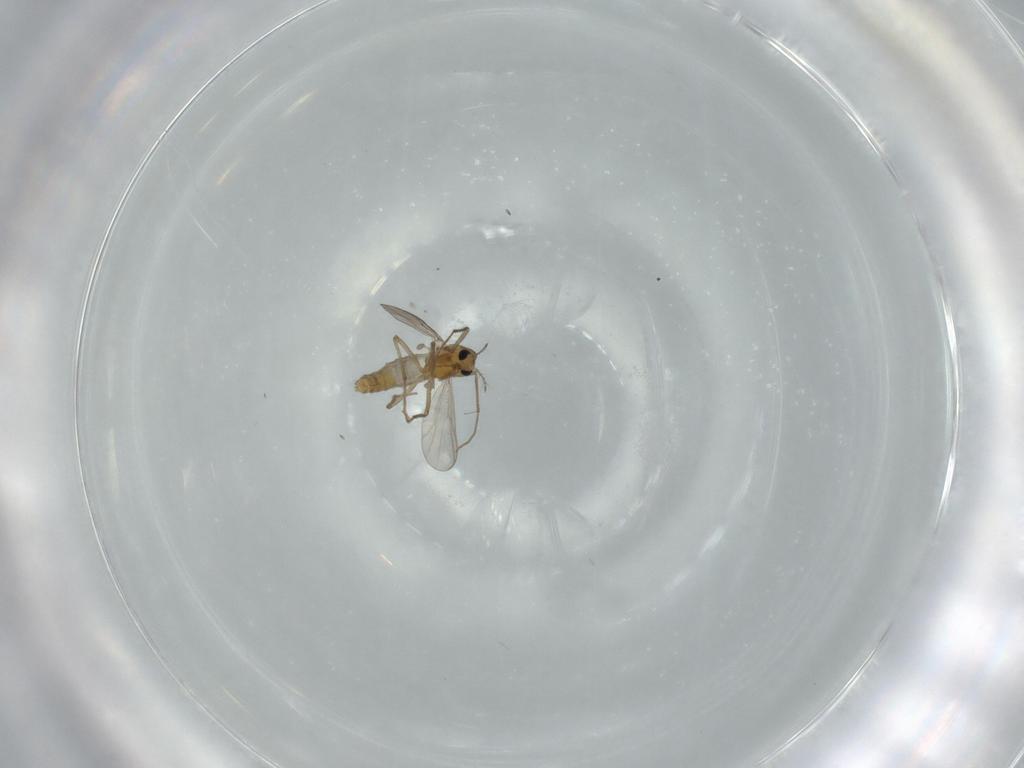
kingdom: Animalia
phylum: Arthropoda
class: Insecta
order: Diptera
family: Chironomidae
